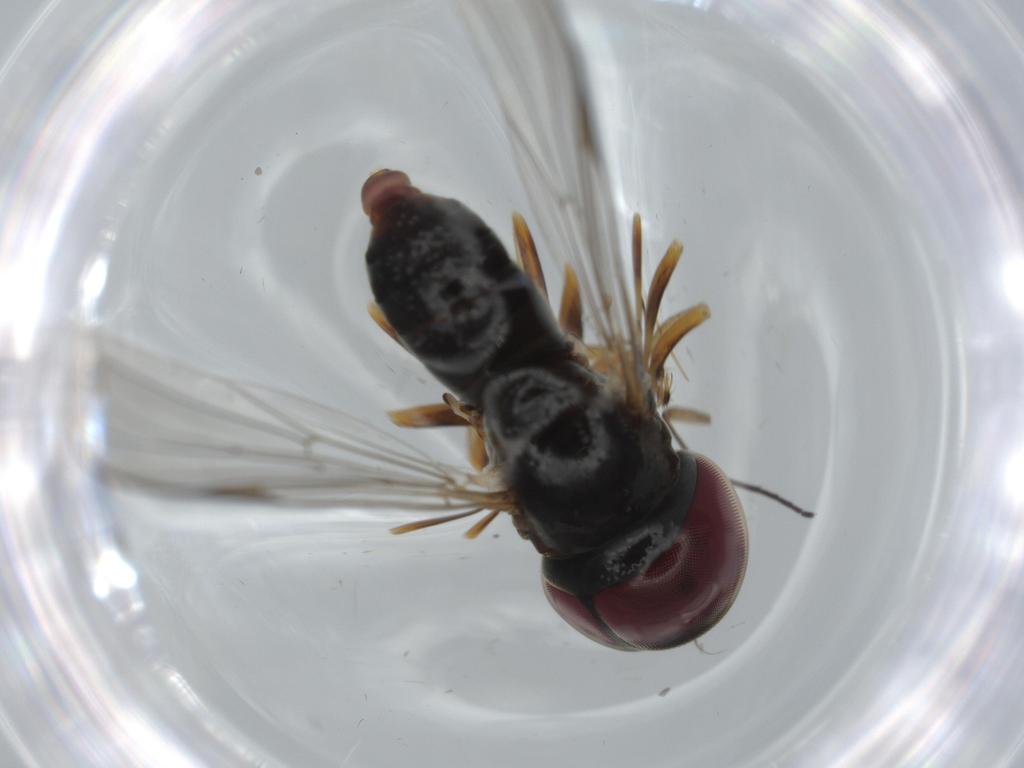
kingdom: Animalia
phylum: Arthropoda
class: Insecta
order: Diptera
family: Pipunculidae
